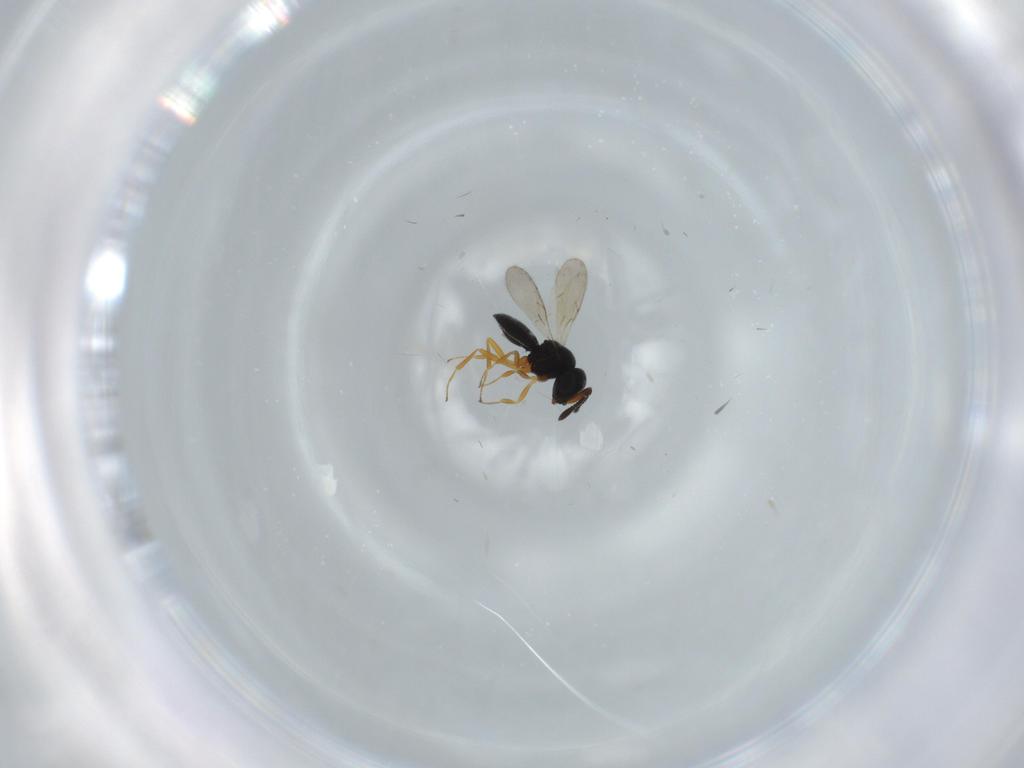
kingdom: Animalia
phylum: Arthropoda
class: Insecta
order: Hymenoptera
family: Scelionidae
